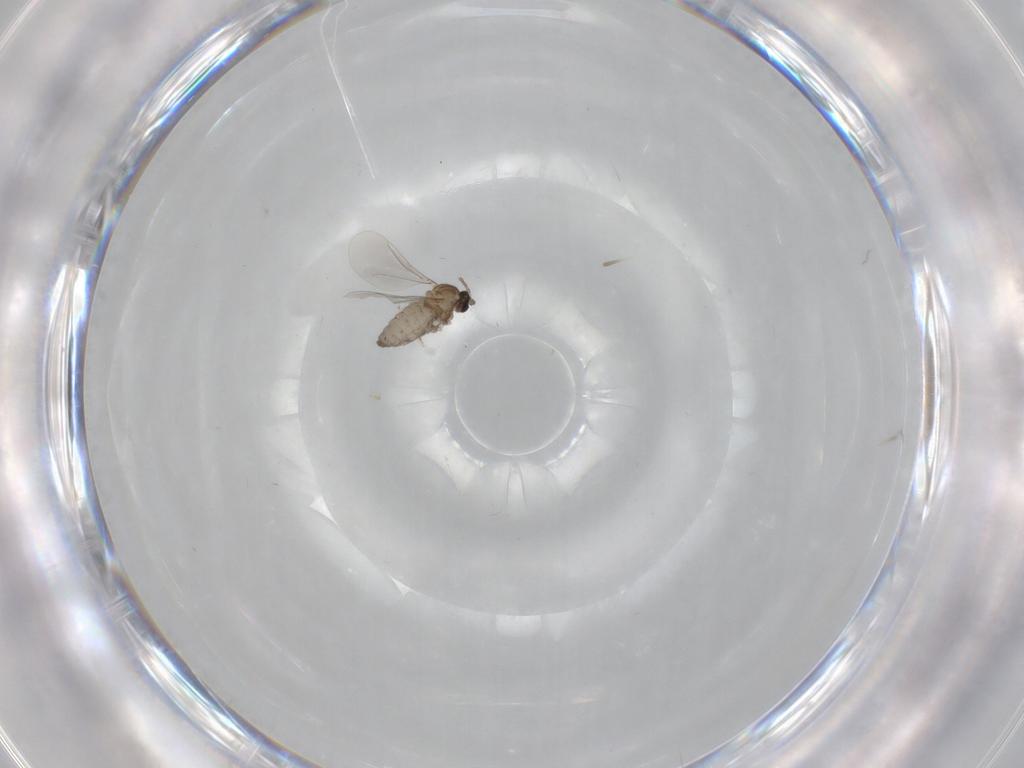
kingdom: Animalia
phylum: Arthropoda
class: Insecta
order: Diptera
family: Cecidomyiidae
